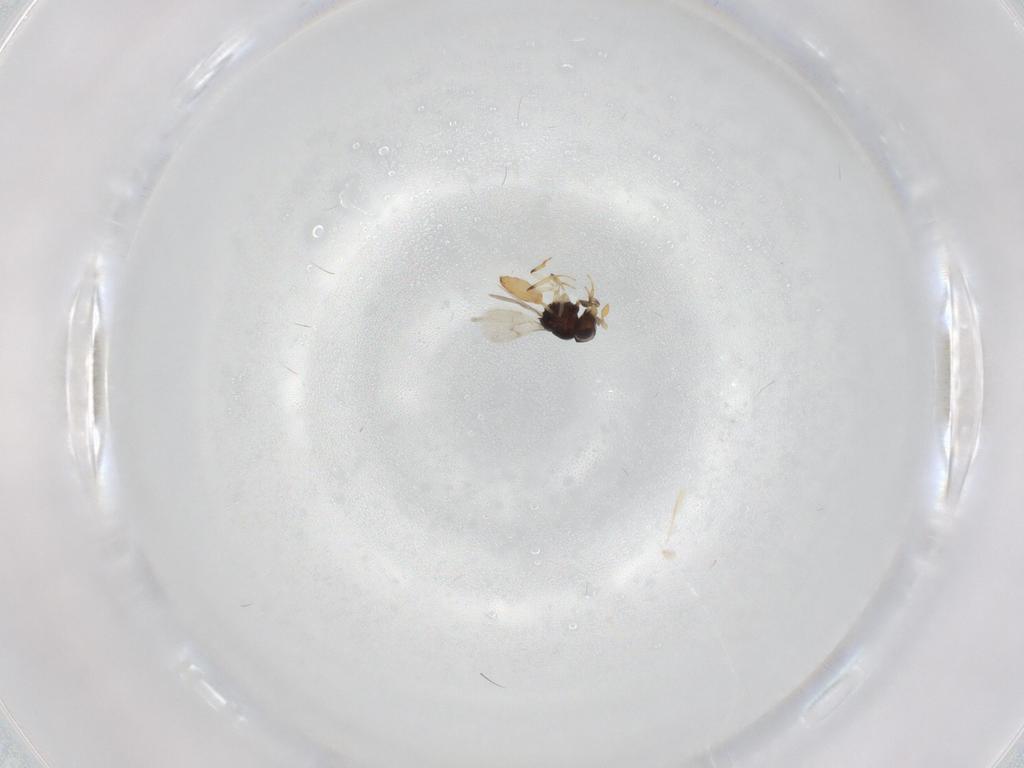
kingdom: Animalia
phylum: Arthropoda
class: Insecta
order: Hymenoptera
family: Scelionidae
